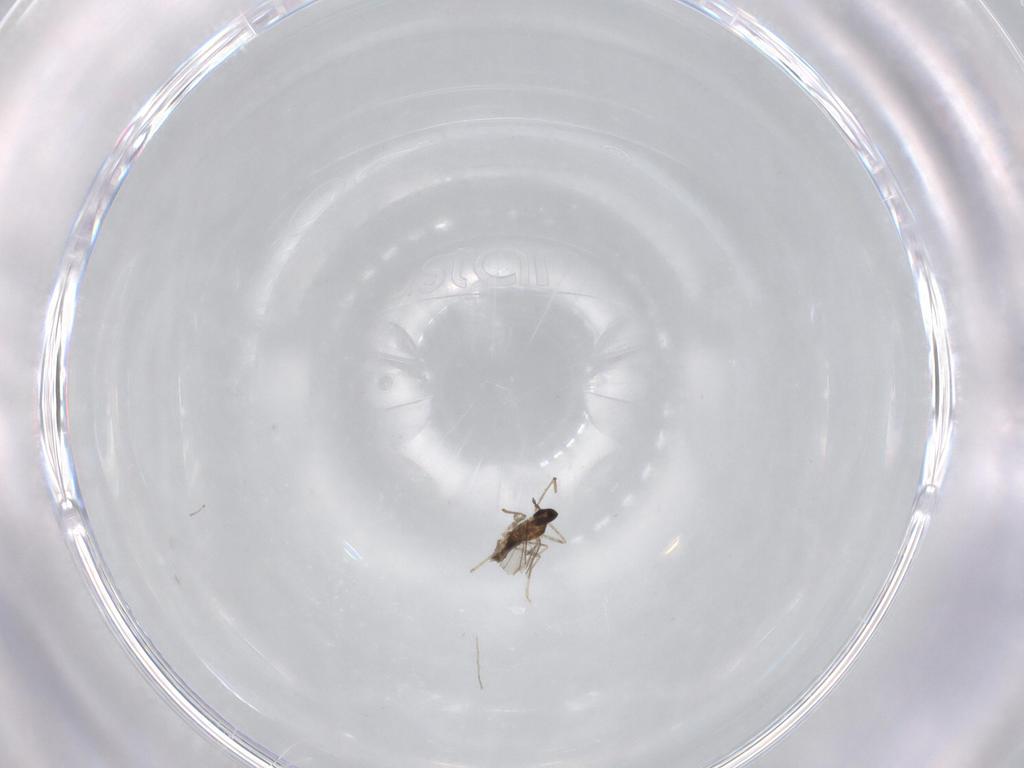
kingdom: Animalia
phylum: Arthropoda
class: Insecta
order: Diptera
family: Cecidomyiidae
